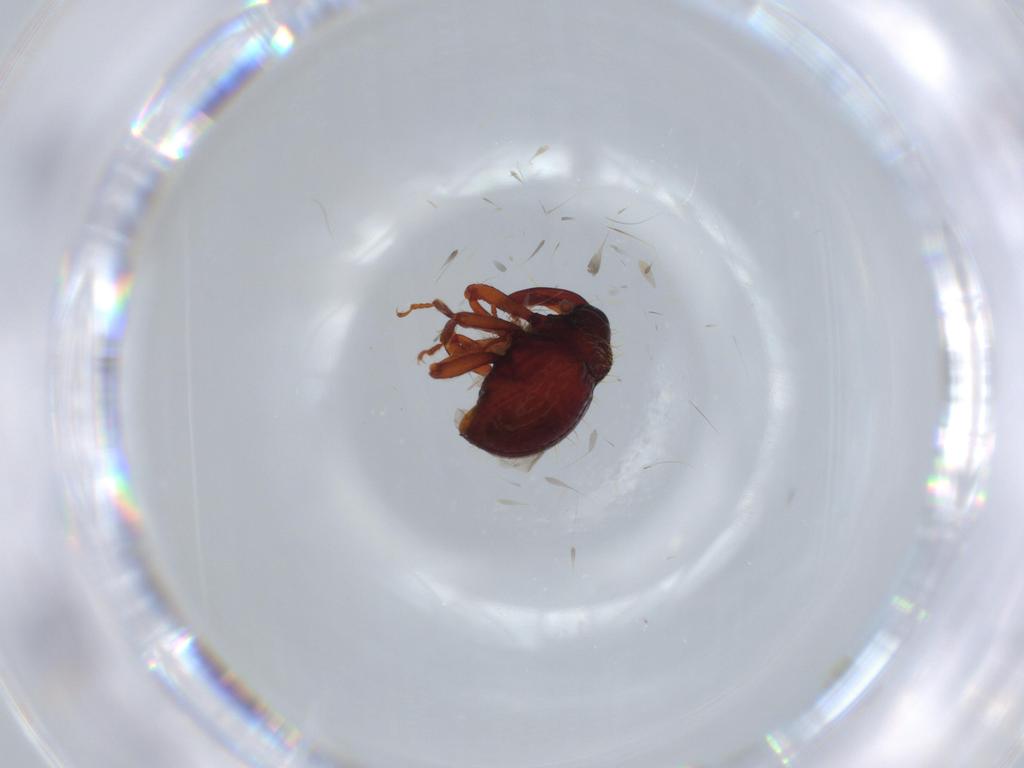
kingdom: Animalia
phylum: Arthropoda
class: Insecta
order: Coleoptera
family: Curculionidae
